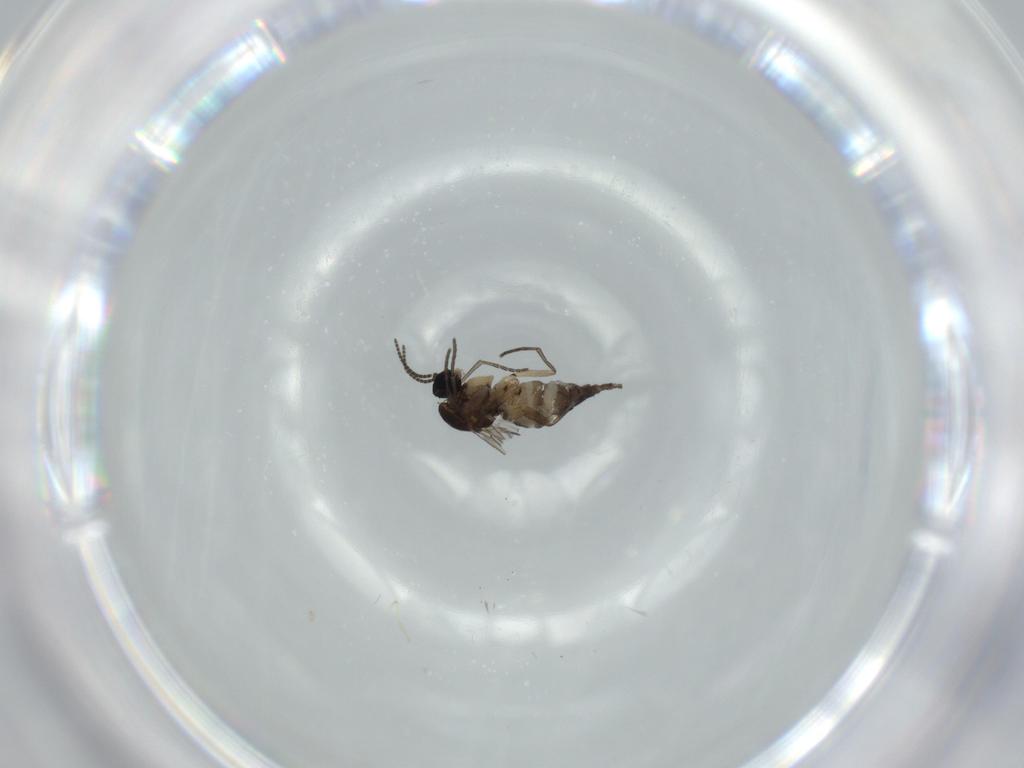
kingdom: Animalia
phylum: Arthropoda
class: Insecta
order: Diptera
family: Sciaridae
